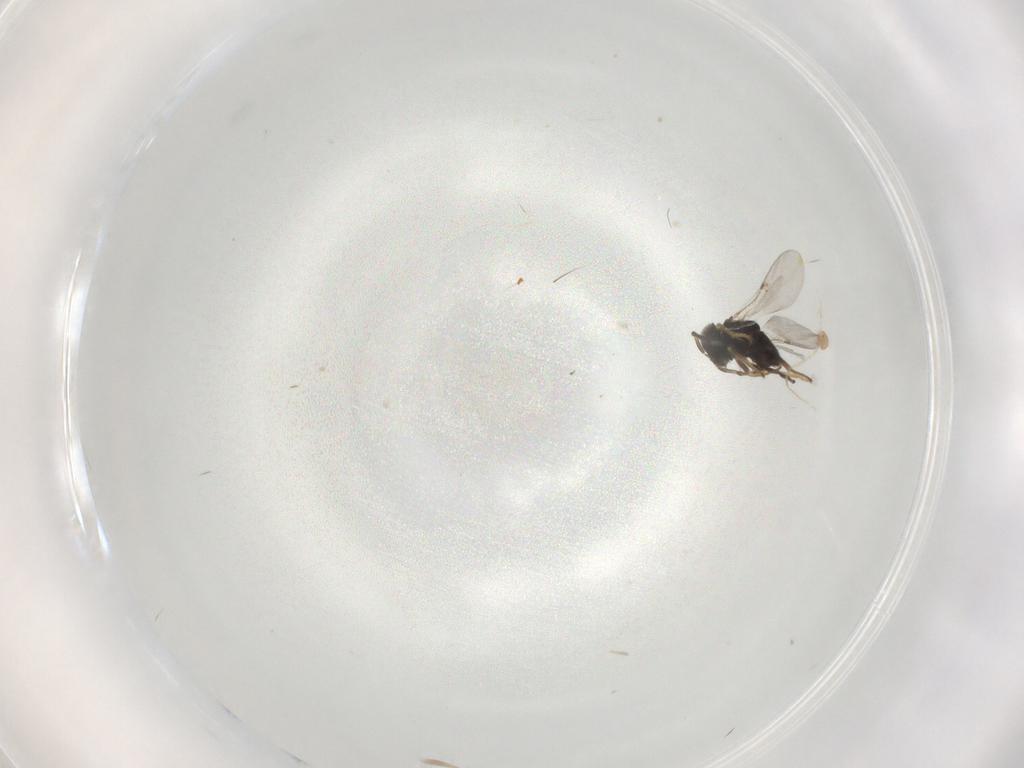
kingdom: Animalia
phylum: Arthropoda
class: Insecta
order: Hymenoptera
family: Encyrtidae
